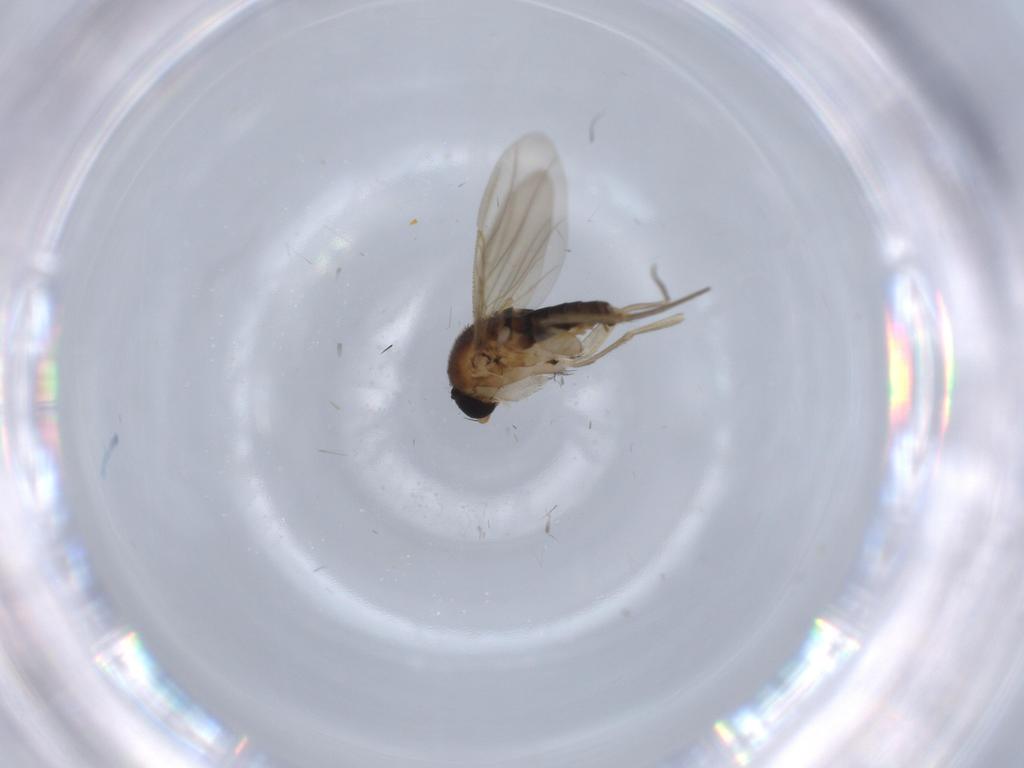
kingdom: Animalia
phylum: Arthropoda
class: Insecta
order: Diptera
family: Phoridae
